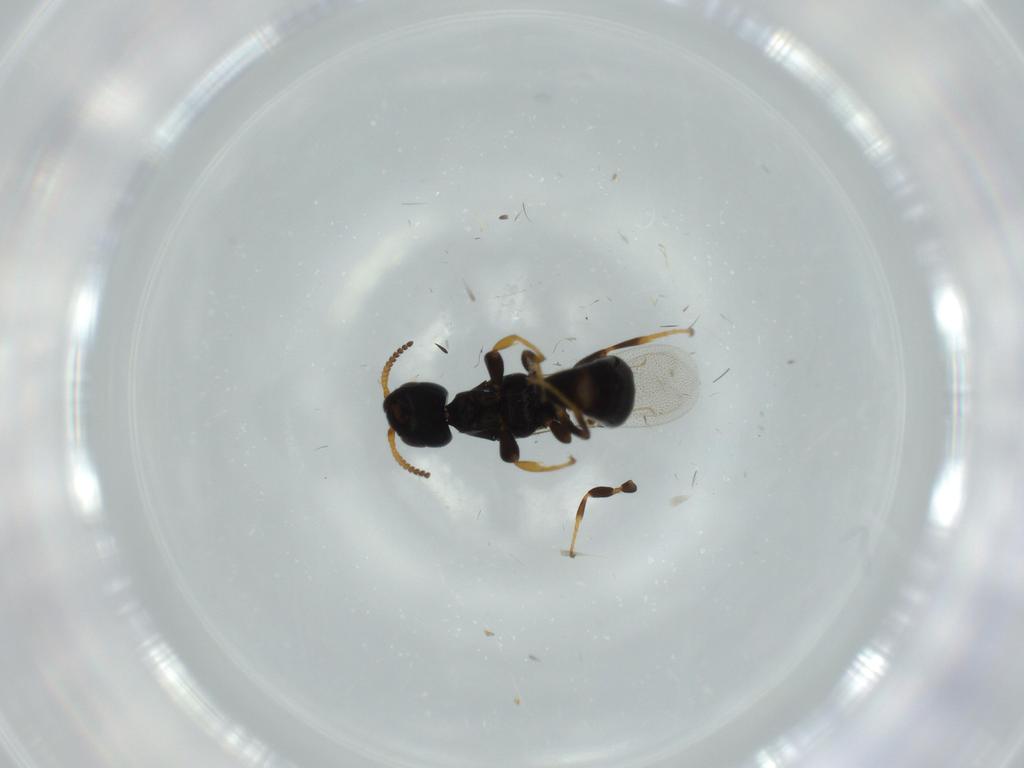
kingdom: Animalia
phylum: Arthropoda
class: Insecta
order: Hymenoptera
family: Bethylidae
